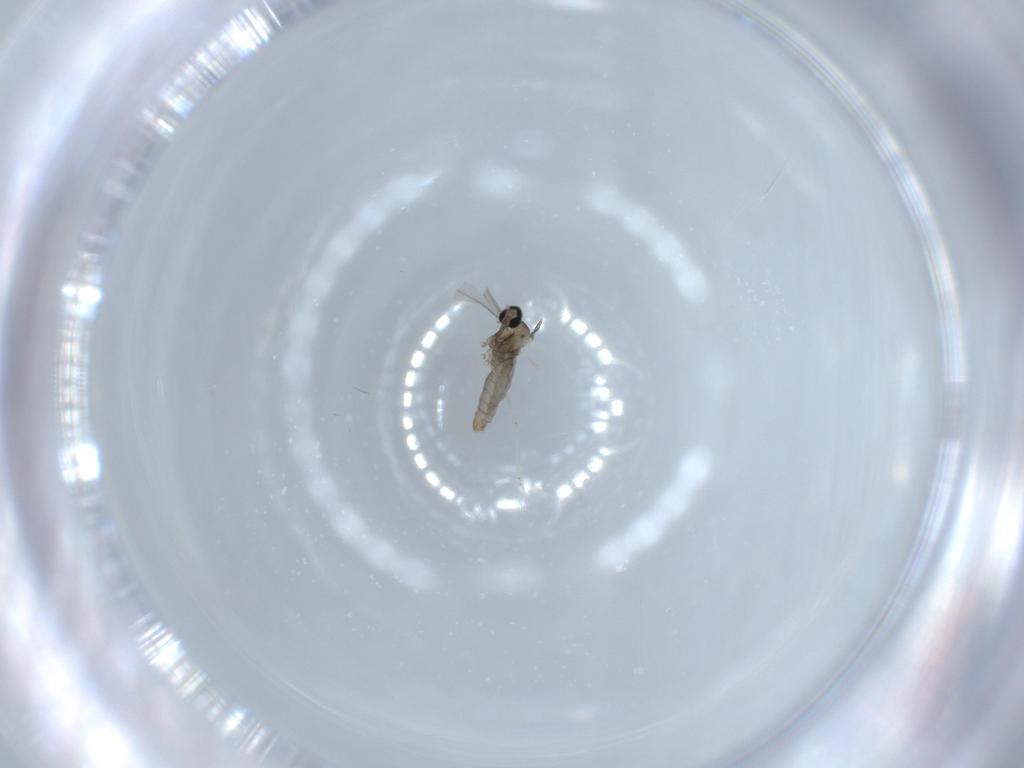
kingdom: Animalia
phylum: Arthropoda
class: Insecta
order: Diptera
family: Cecidomyiidae
